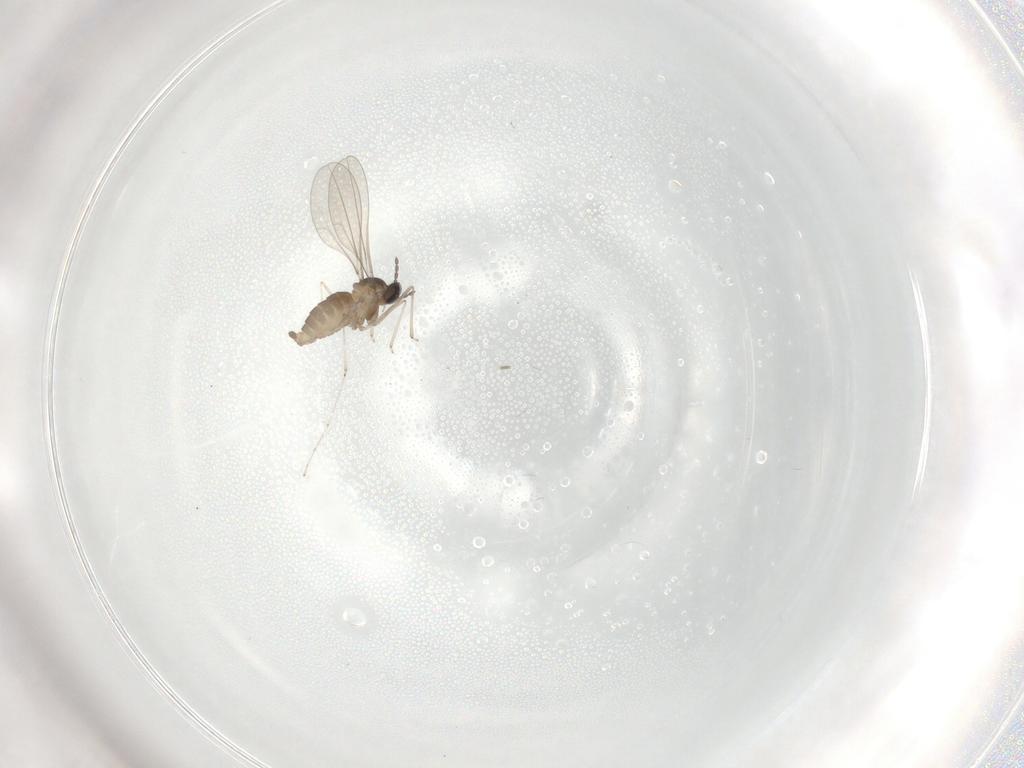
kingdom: Animalia
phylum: Arthropoda
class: Insecta
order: Diptera
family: Cecidomyiidae
